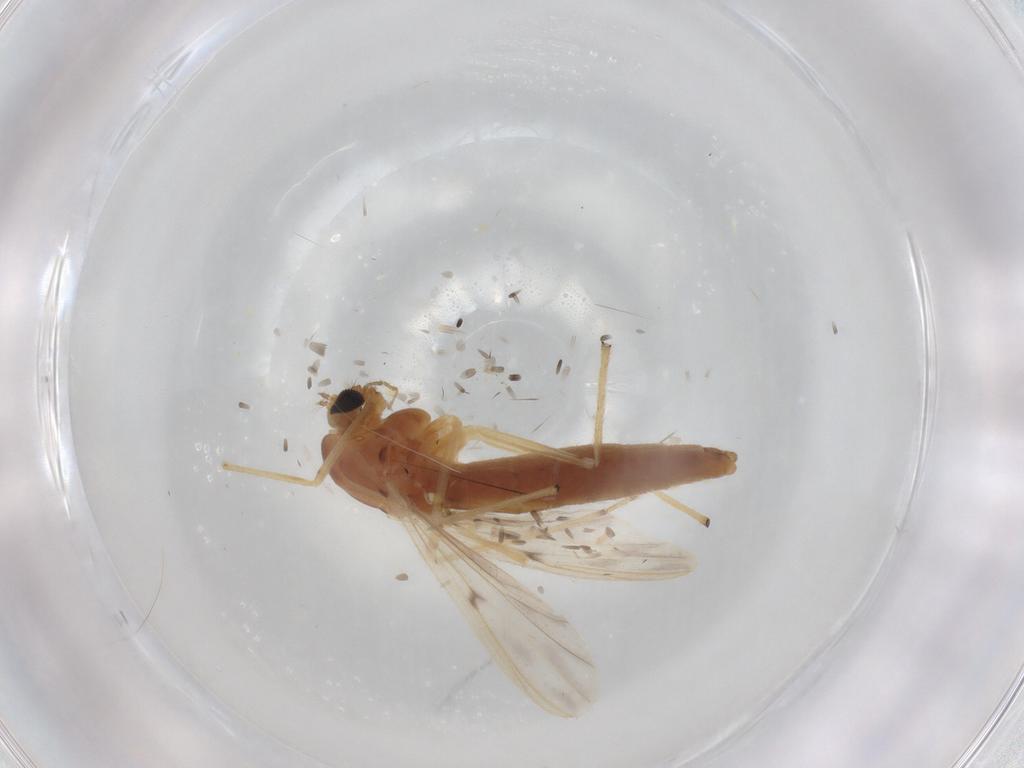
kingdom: Animalia
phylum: Arthropoda
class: Insecta
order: Diptera
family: Chironomidae
